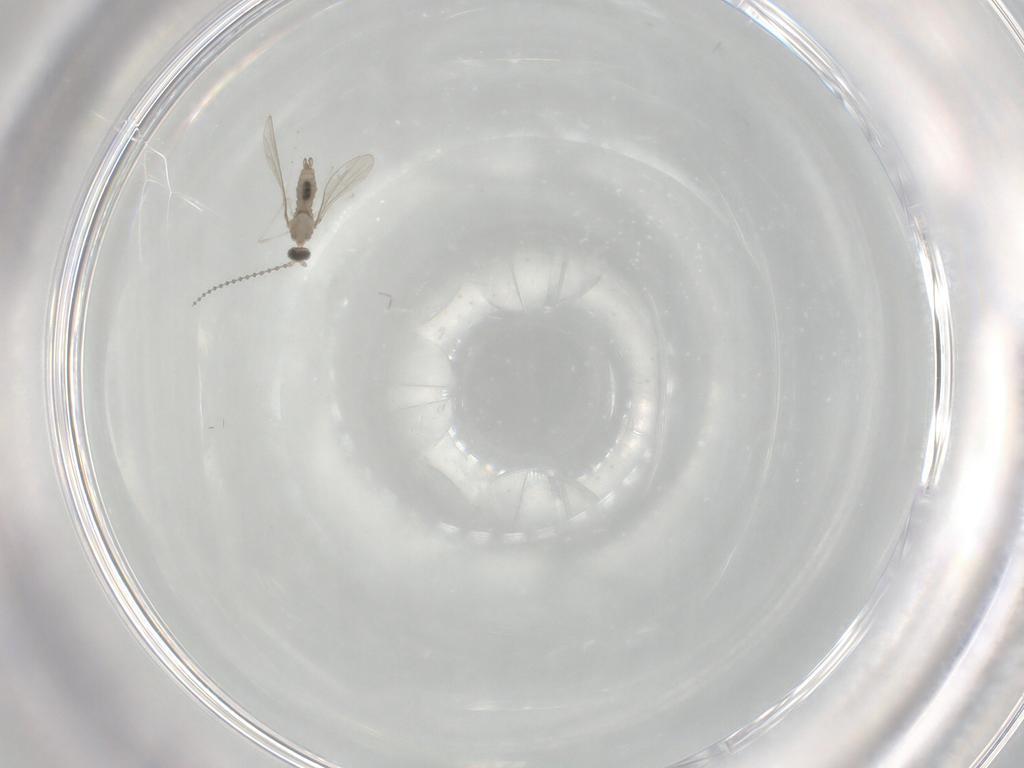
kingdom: Animalia
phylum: Arthropoda
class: Insecta
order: Diptera
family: Cecidomyiidae
